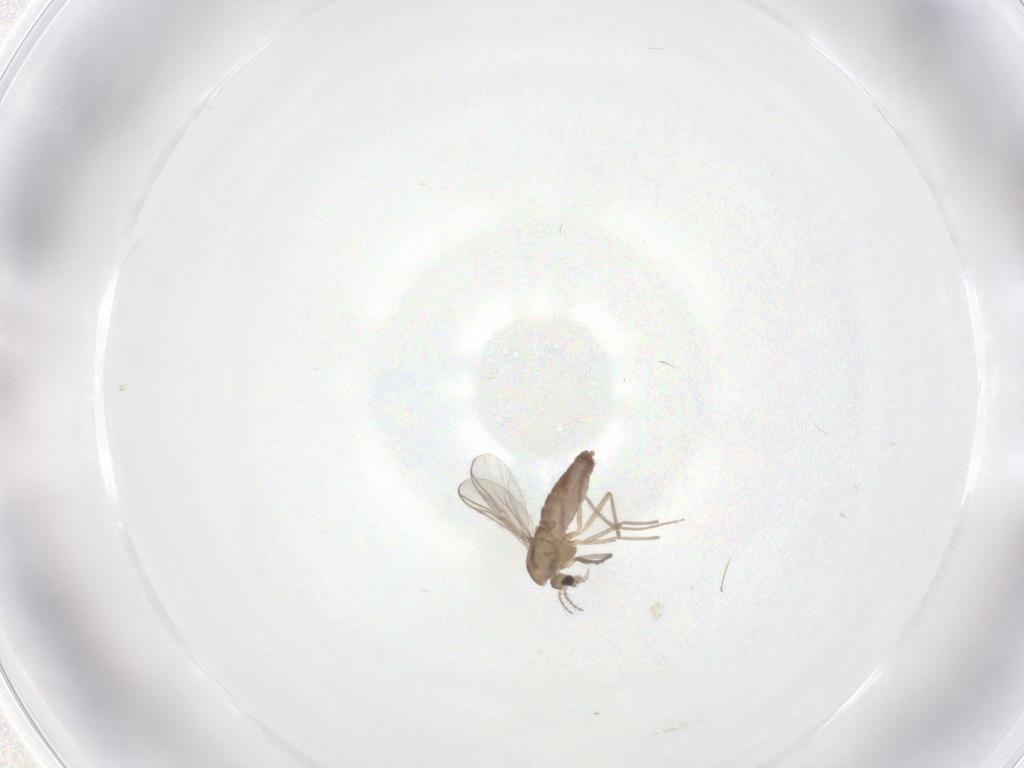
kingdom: Animalia
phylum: Arthropoda
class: Insecta
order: Diptera
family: Chironomidae
